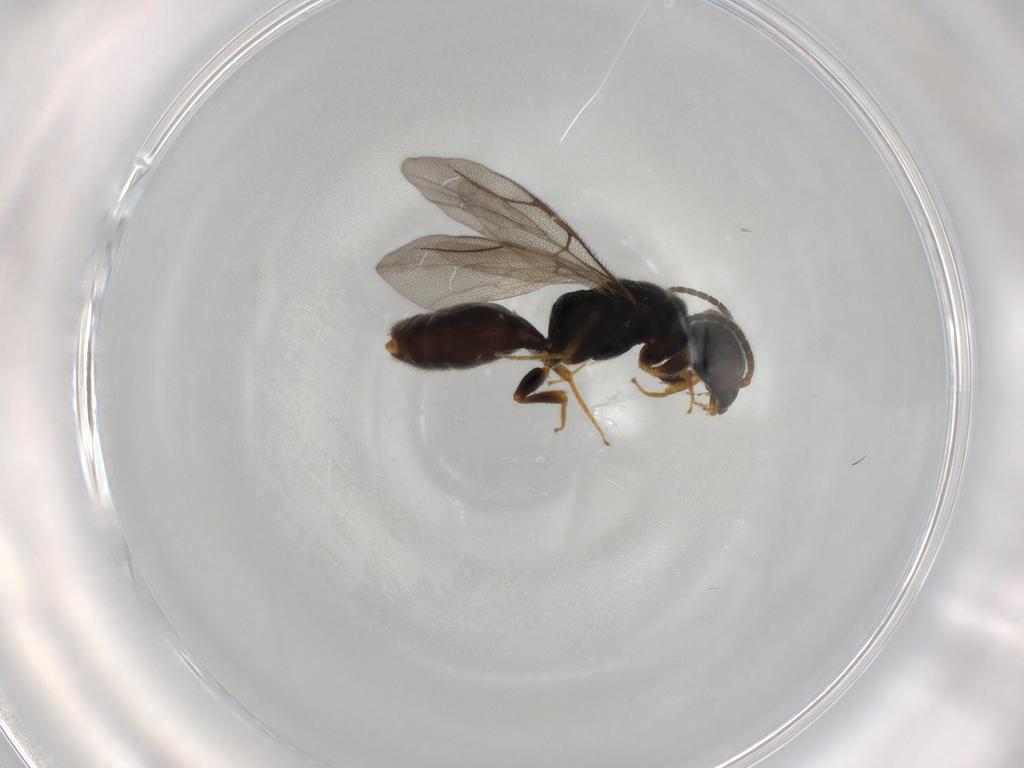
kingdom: Animalia
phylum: Arthropoda
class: Insecta
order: Hymenoptera
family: Bethylidae
